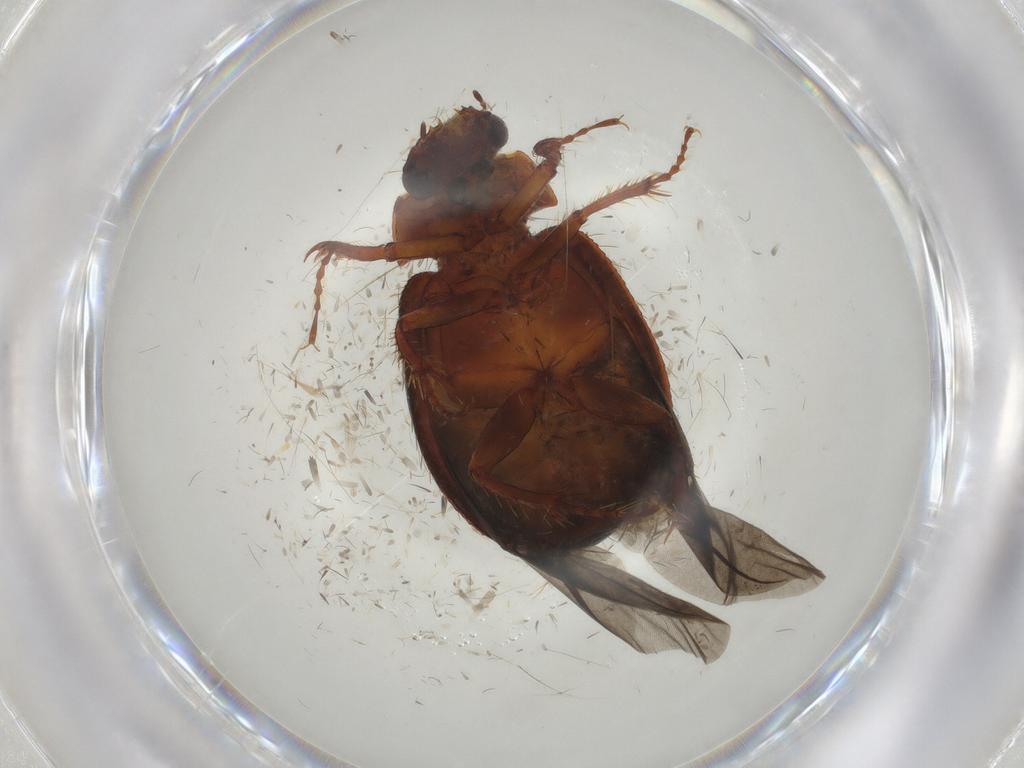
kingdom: Animalia
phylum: Arthropoda
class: Insecta
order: Coleoptera
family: Hybosoridae
